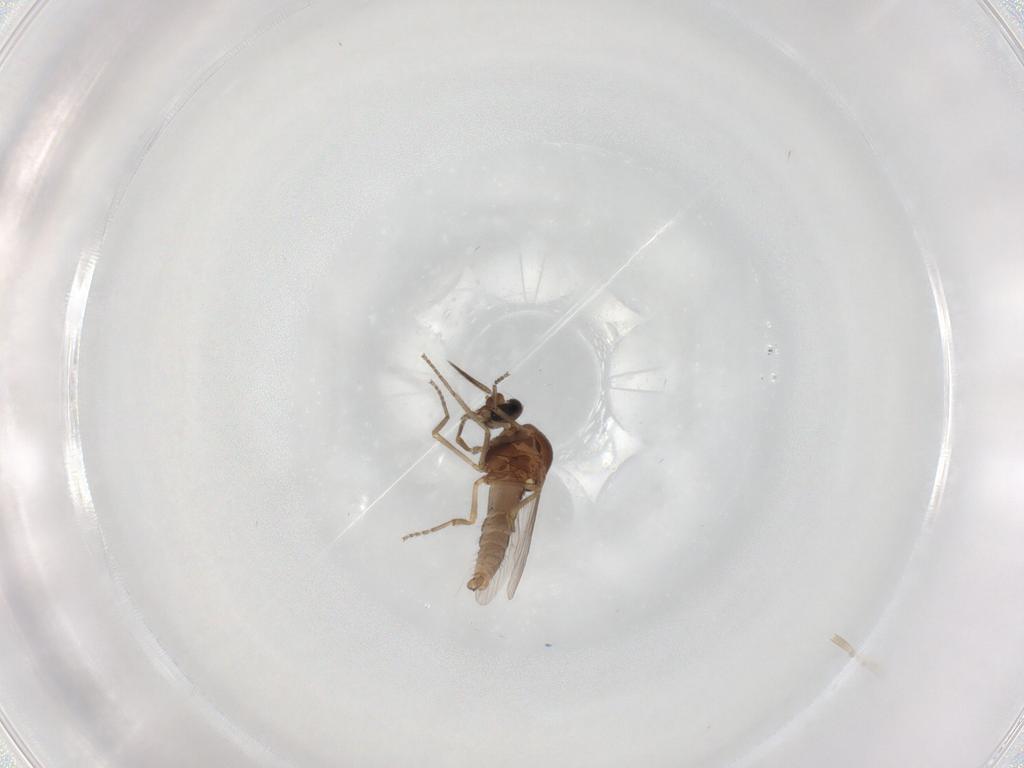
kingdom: Animalia
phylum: Arthropoda
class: Insecta
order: Diptera
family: Ceratopogonidae
